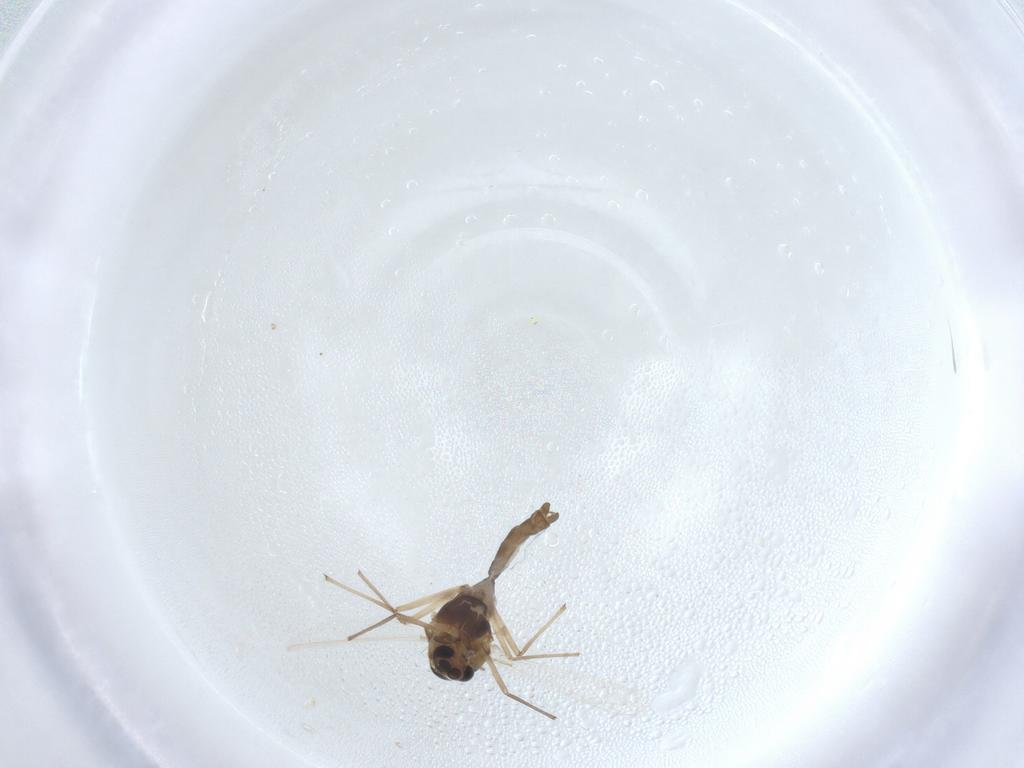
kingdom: Animalia
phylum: Arthropoda
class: Insecta
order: Diptera
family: Chironomidae
